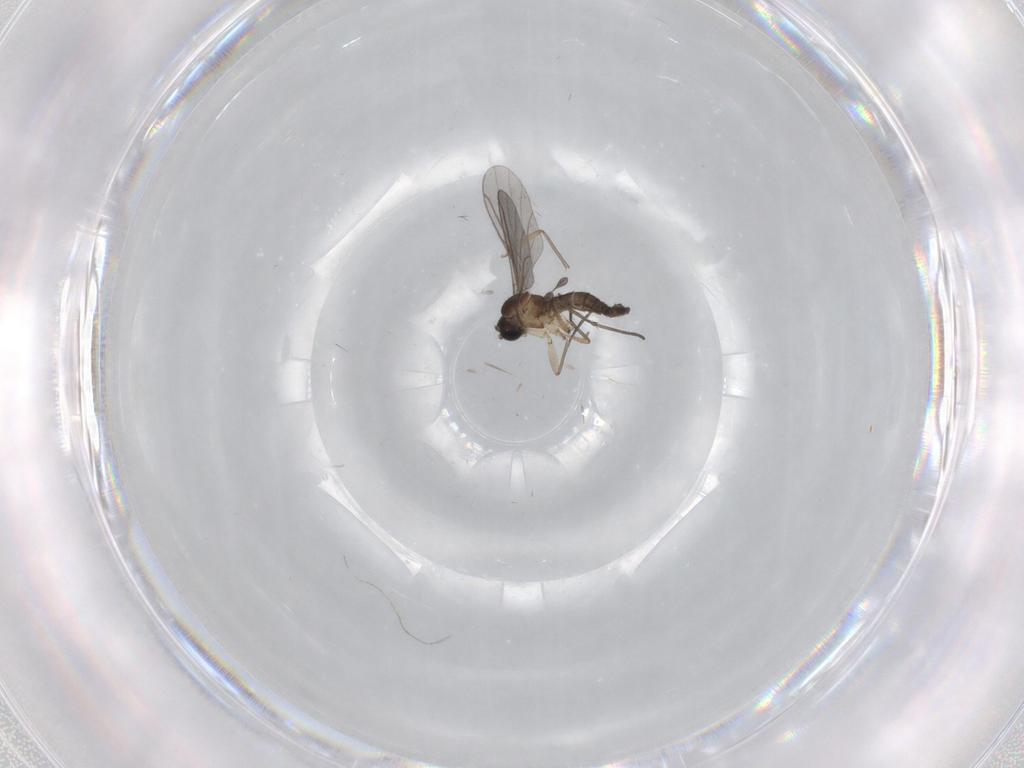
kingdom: Animalia
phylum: Arthropoda
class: Insecta
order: Diptera
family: Sciaridae
